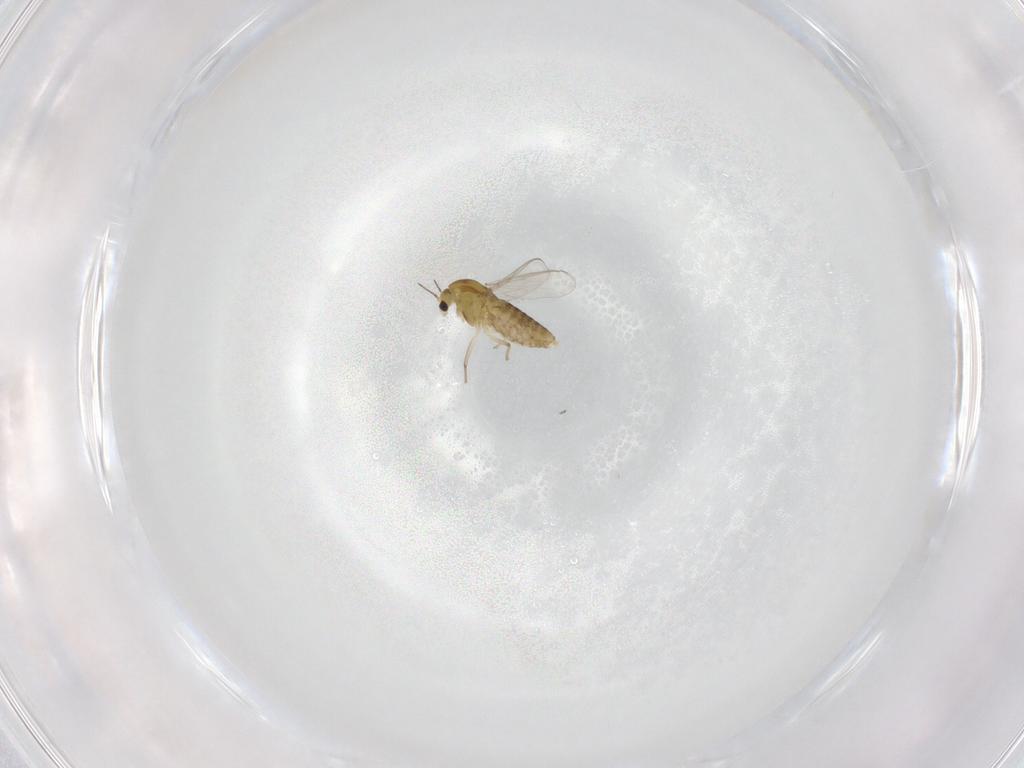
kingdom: Animalia
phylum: Arthropoda
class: Insecta
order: Diptera
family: Chironomidae
